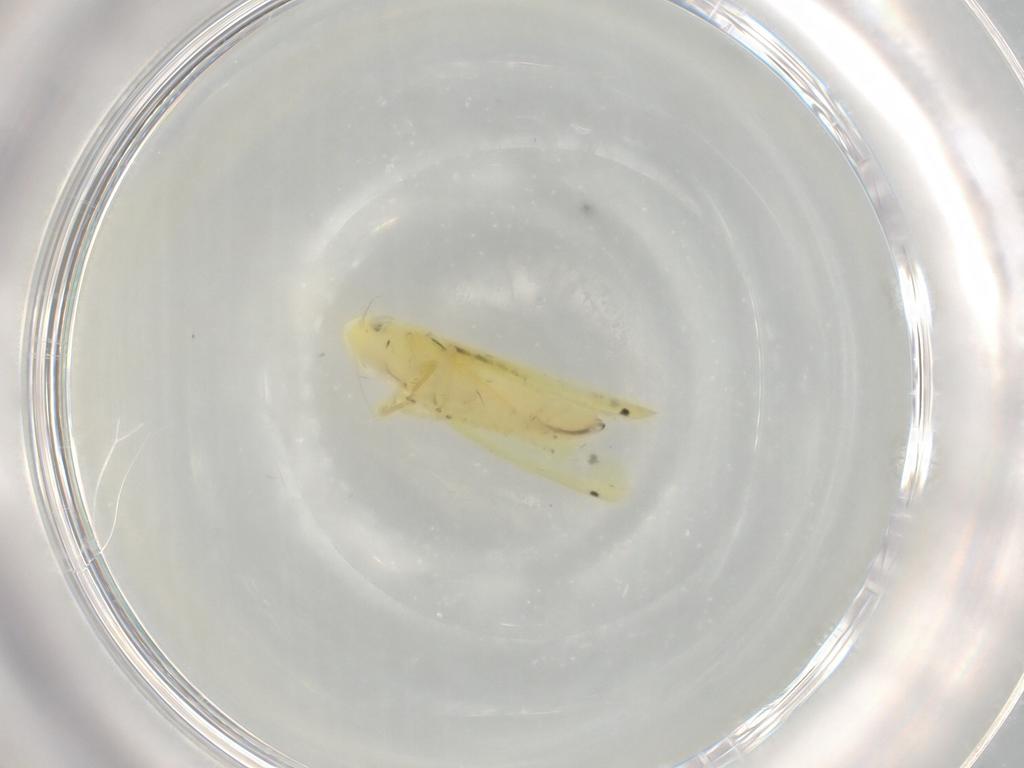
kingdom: Animalia
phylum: Arthropoda
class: Insecta
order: Hemiptera
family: Cicadellidae
